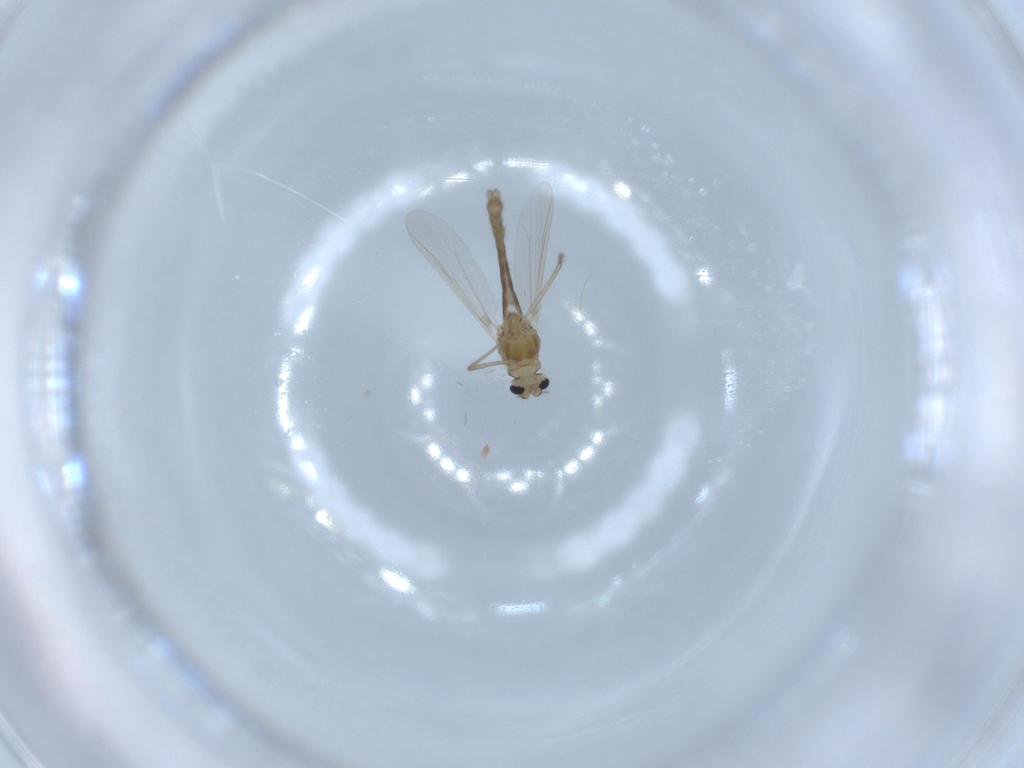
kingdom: Animalia
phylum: Arthropoda
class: Insecta
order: Diptera
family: Chironomidae
